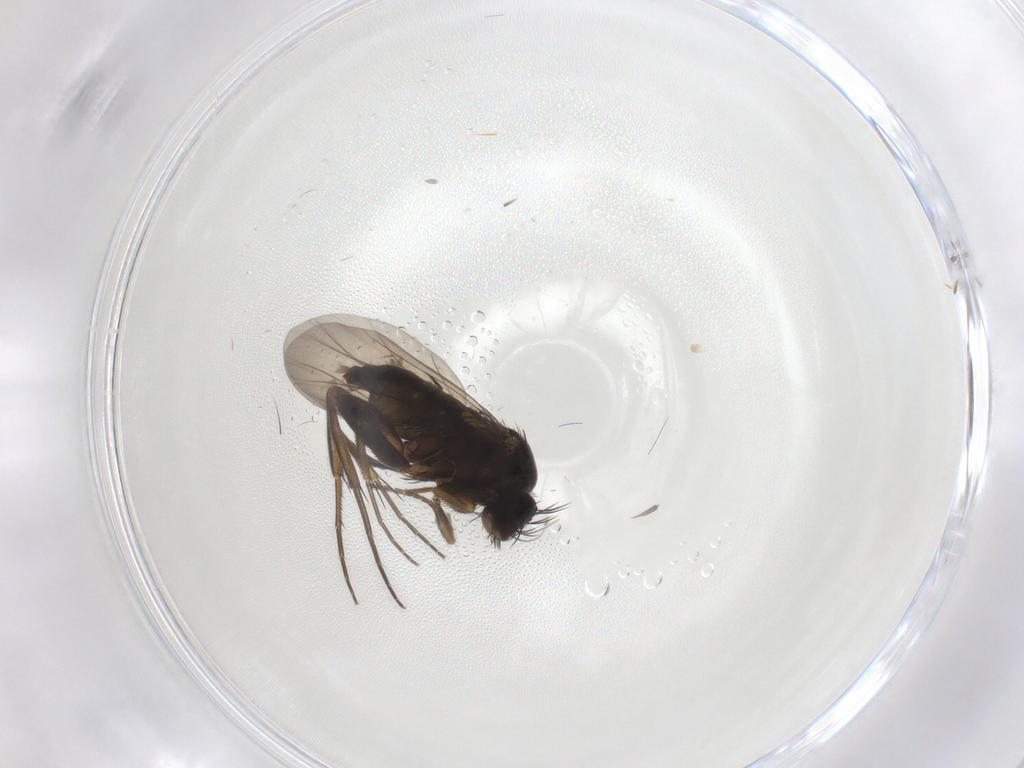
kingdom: Animalia
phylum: Arthropoda
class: Insecta
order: Diptera
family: Phoridae
